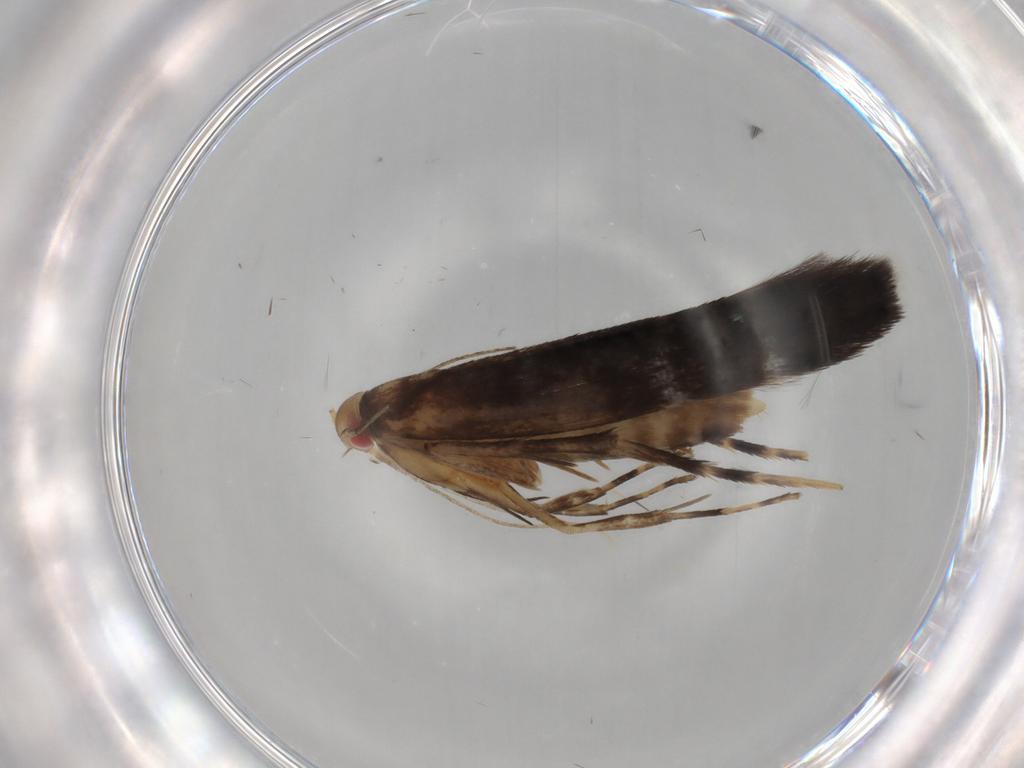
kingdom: Animalia
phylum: Arthropoda
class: Insecta
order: Lepidoptera
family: Cosmopterigidae
